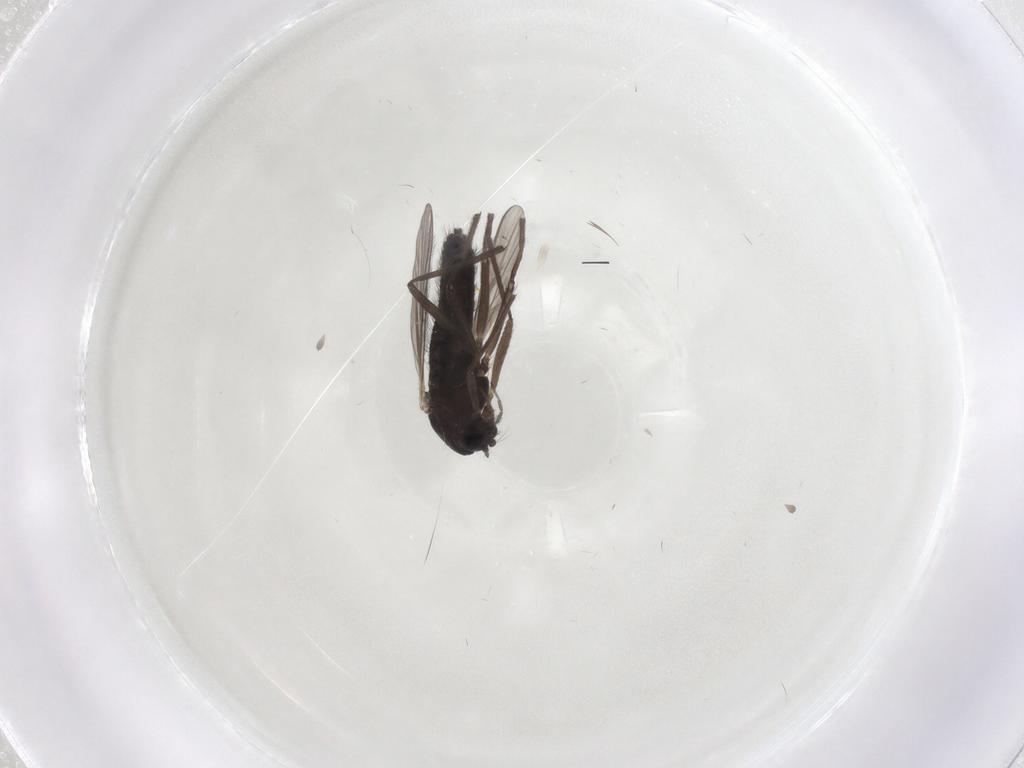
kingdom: Animalia
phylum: Arthropoda
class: Insecta
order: Diptera
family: Chironomidae
